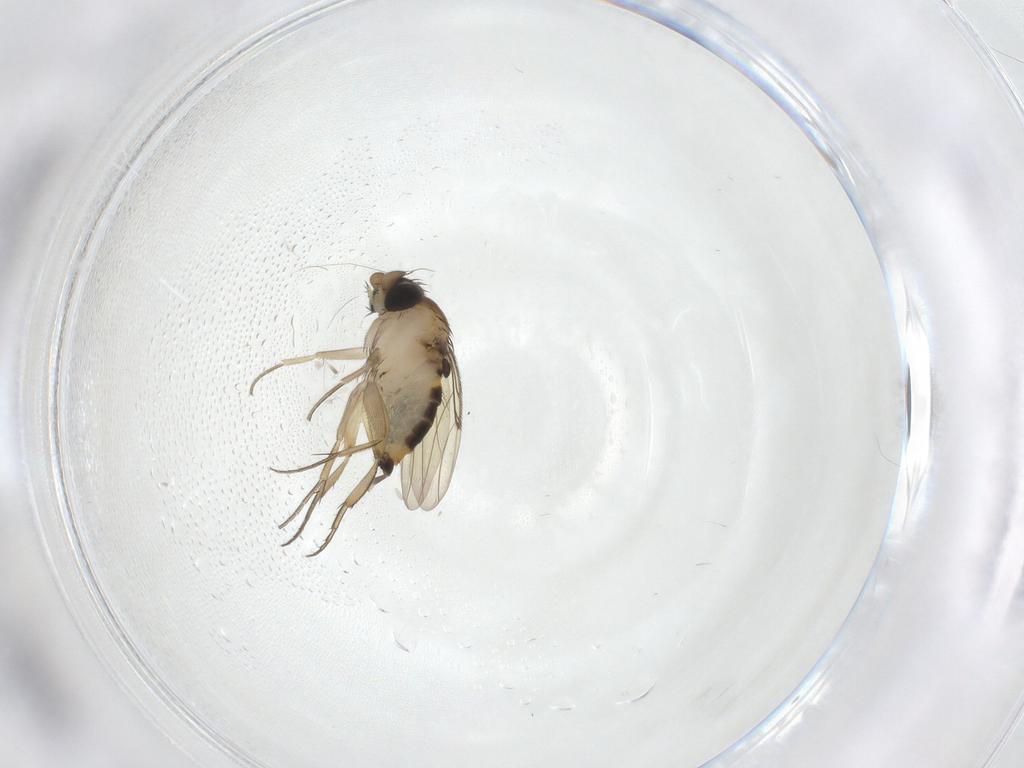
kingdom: Animalia
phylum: Arthropoda
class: Insecta
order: Diptera
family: Phoridae
